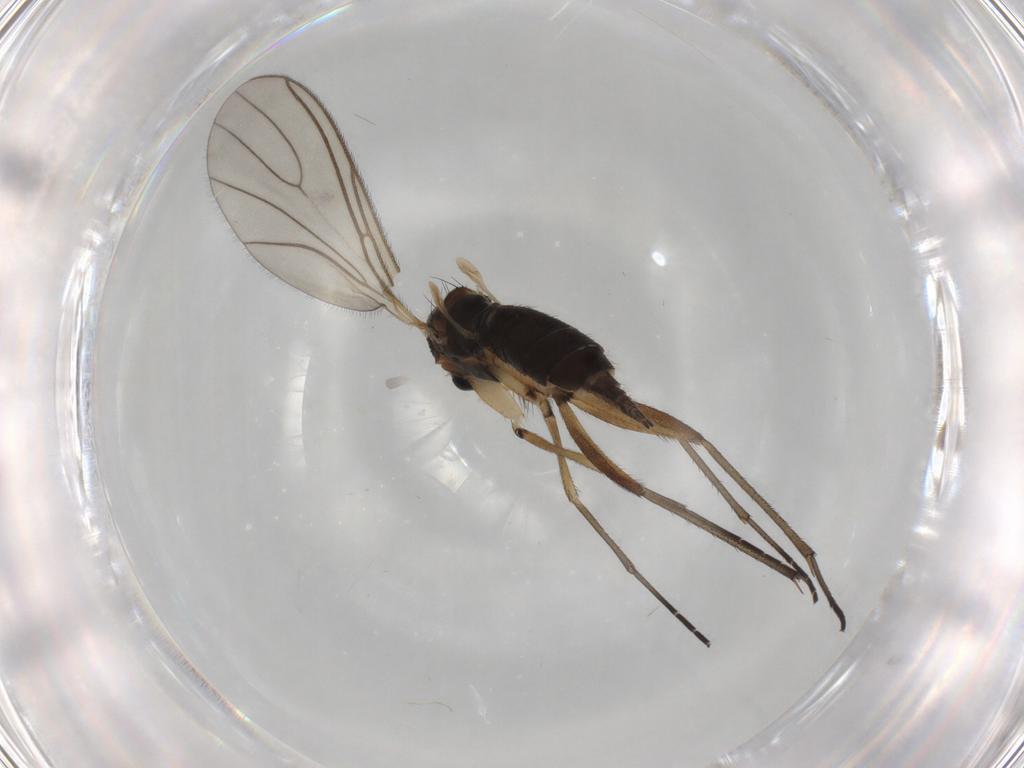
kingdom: Animalia
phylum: Arthropoda
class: Insecta
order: Diptera
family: Sciaridae
